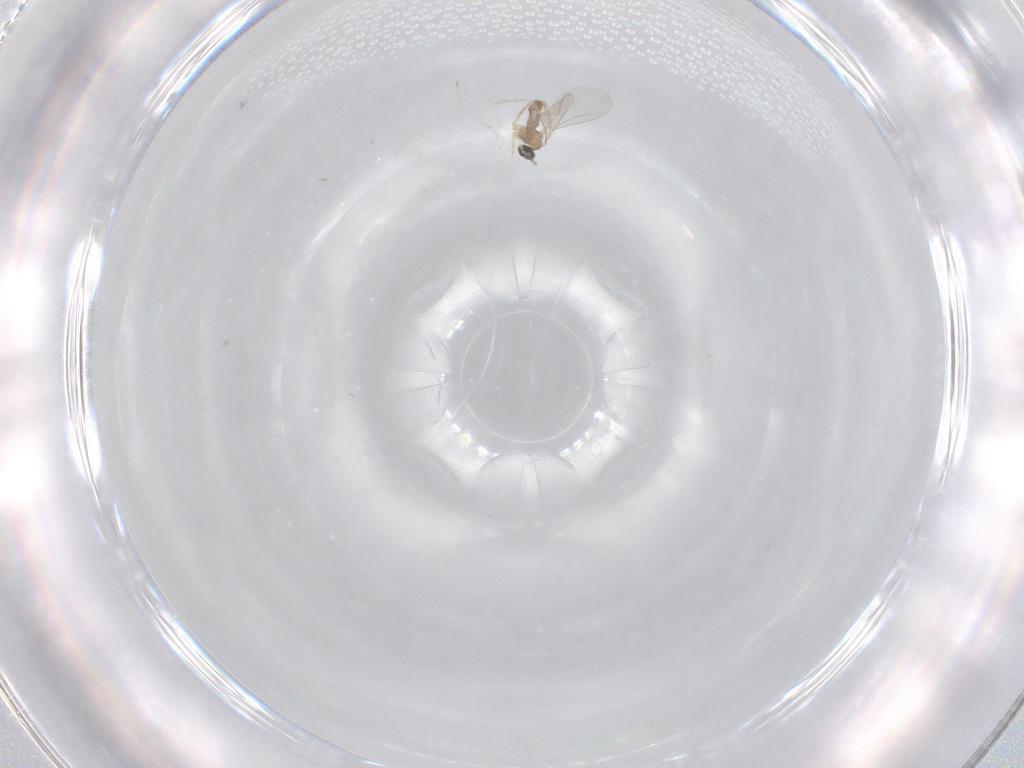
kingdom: Animalia
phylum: Arthropoda
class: Insecta
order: Diptera
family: Cecidomyiidae
